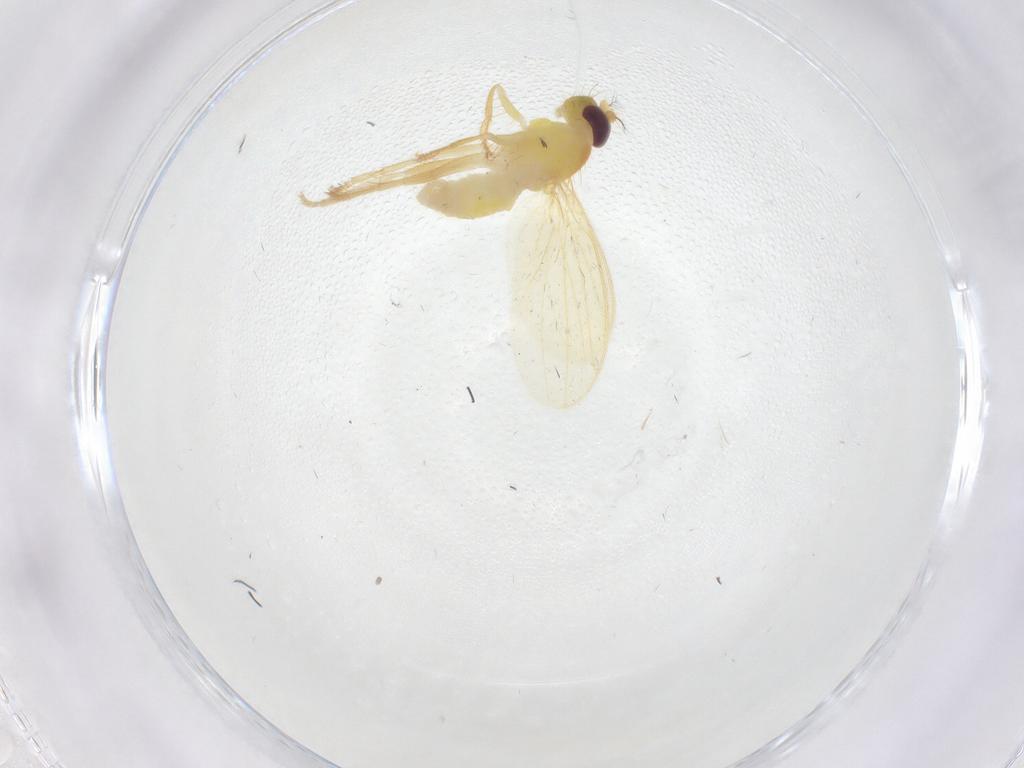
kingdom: Animalia
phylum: Arthropoda
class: Insecta
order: Diptera
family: Periscelididae
